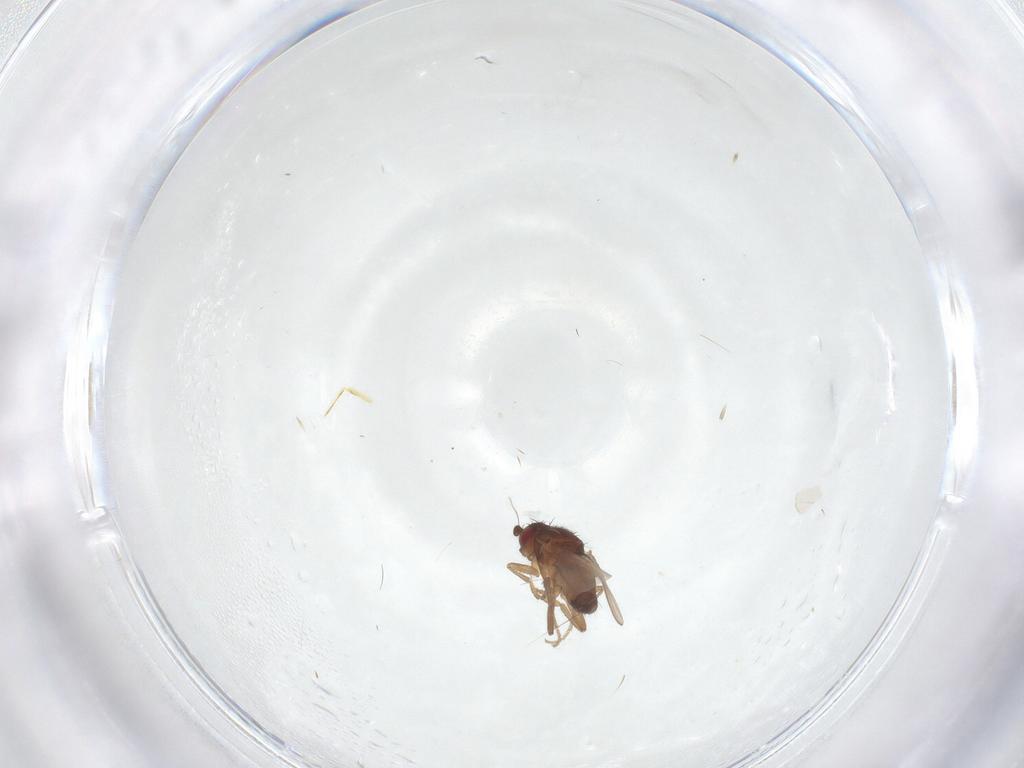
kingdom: Animalia
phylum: Arthropoda
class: Insecta
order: Diptera
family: Sphaeroceridae
